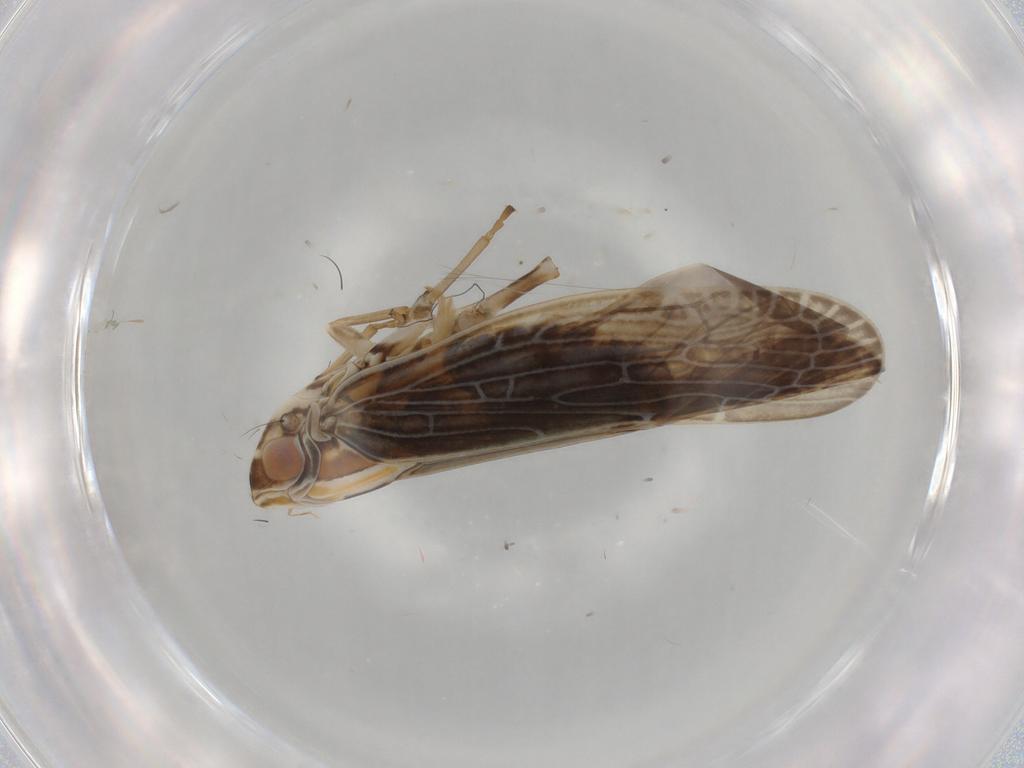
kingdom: Animalia
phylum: Arthropoda
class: Insecta
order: Hemiptera
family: Achilidae
